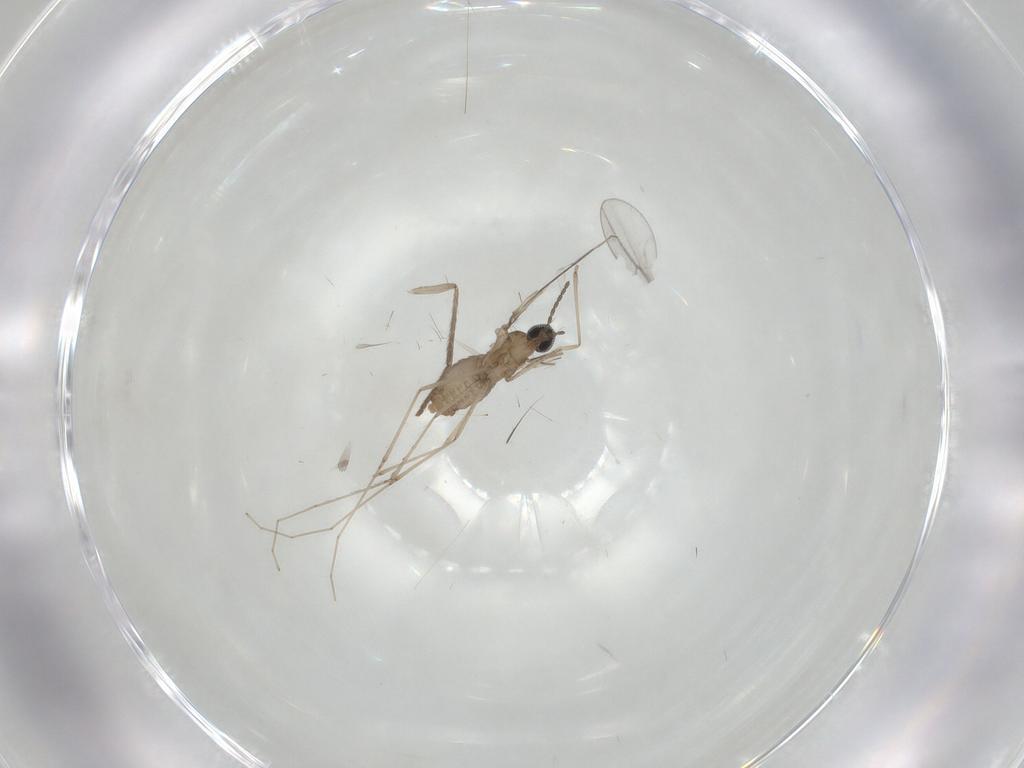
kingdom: Animalia
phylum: Arthropoda
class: Insecta
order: Diptera
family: Cecidomyiidae
